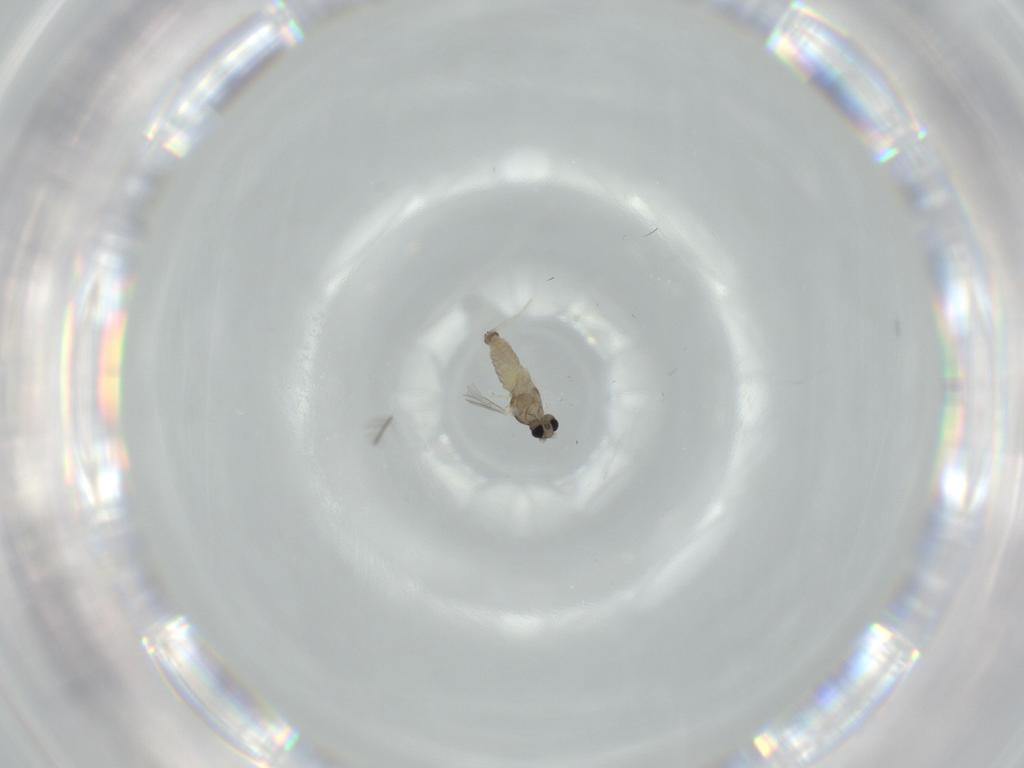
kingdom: Animalia
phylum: Arthropoda
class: Insecta
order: Diptera
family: Cecidomyiidae
